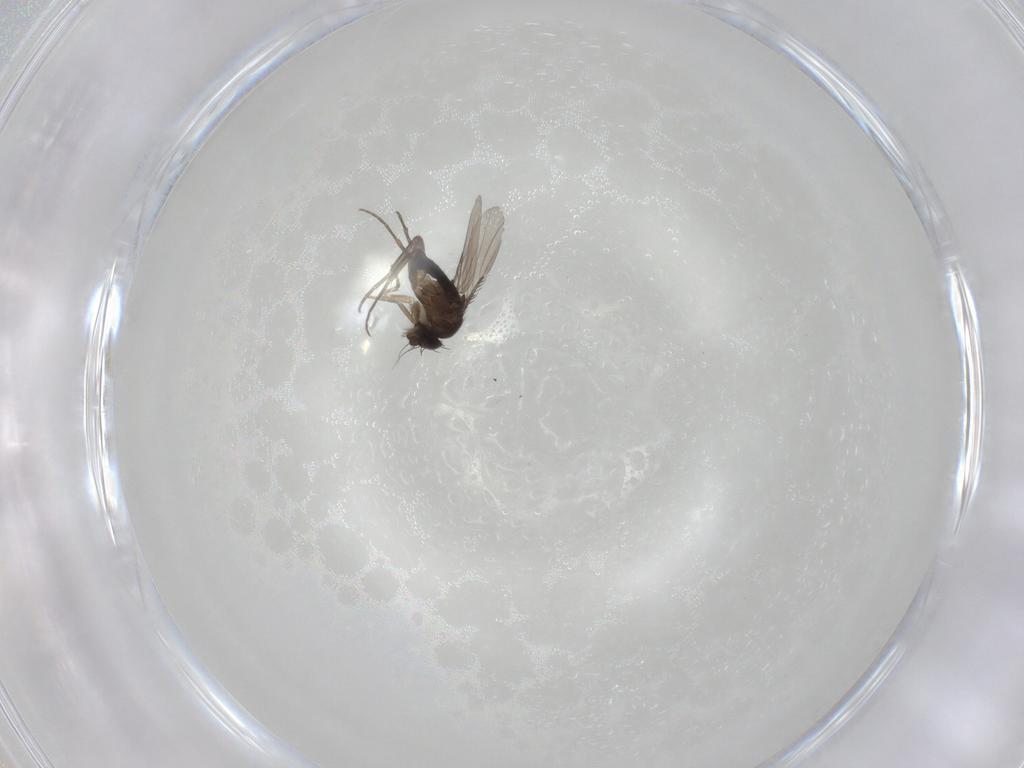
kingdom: Animalia
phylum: Arthropoda
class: Insecta
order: Diptera
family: Phoridae
